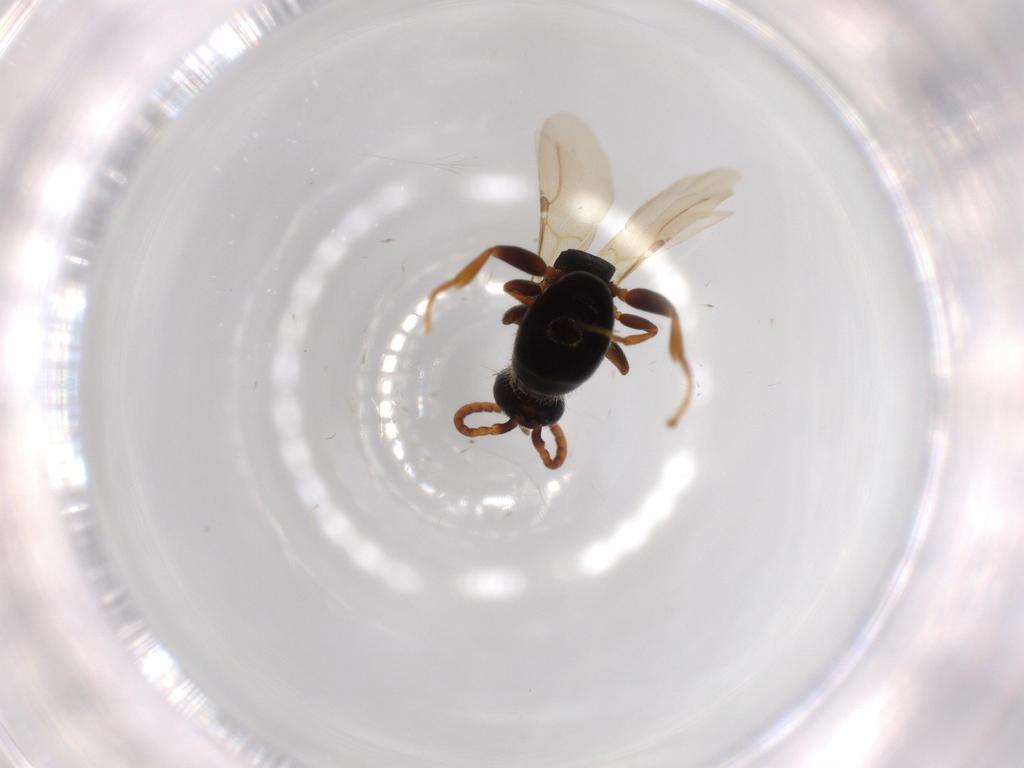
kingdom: Animalia
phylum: Arthropoda
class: Insecta
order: Hymenoptera
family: Bethylidae
